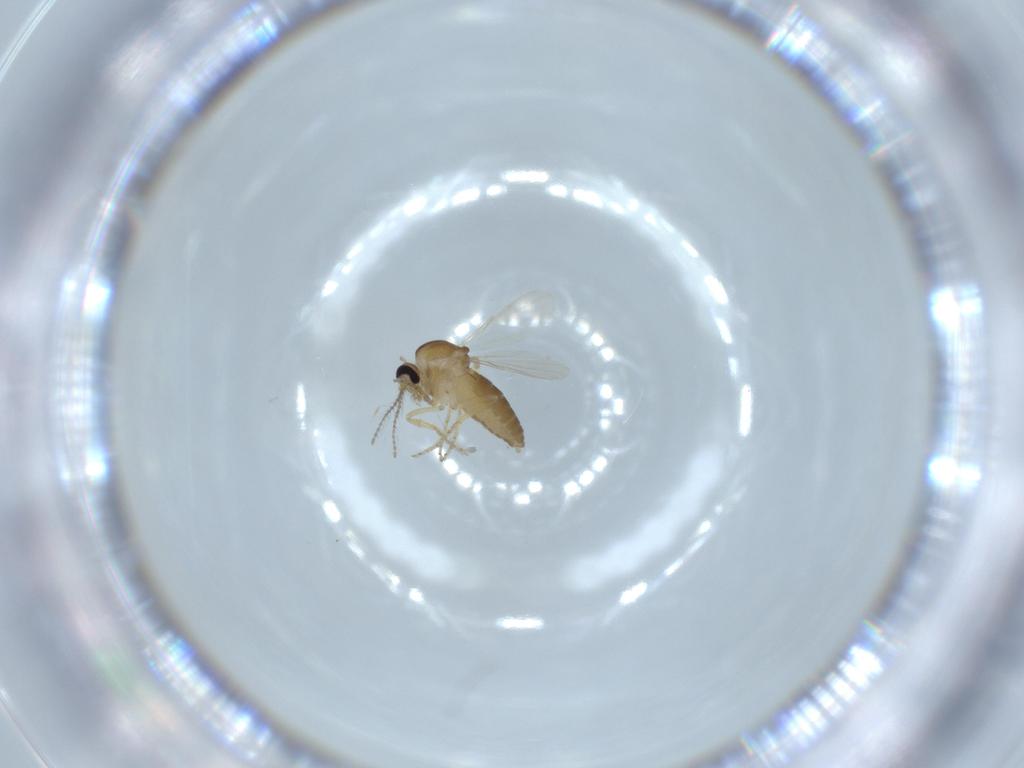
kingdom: Animalia
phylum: Arthropoda
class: Insecta
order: Diptera
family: Ceratopogonidae
